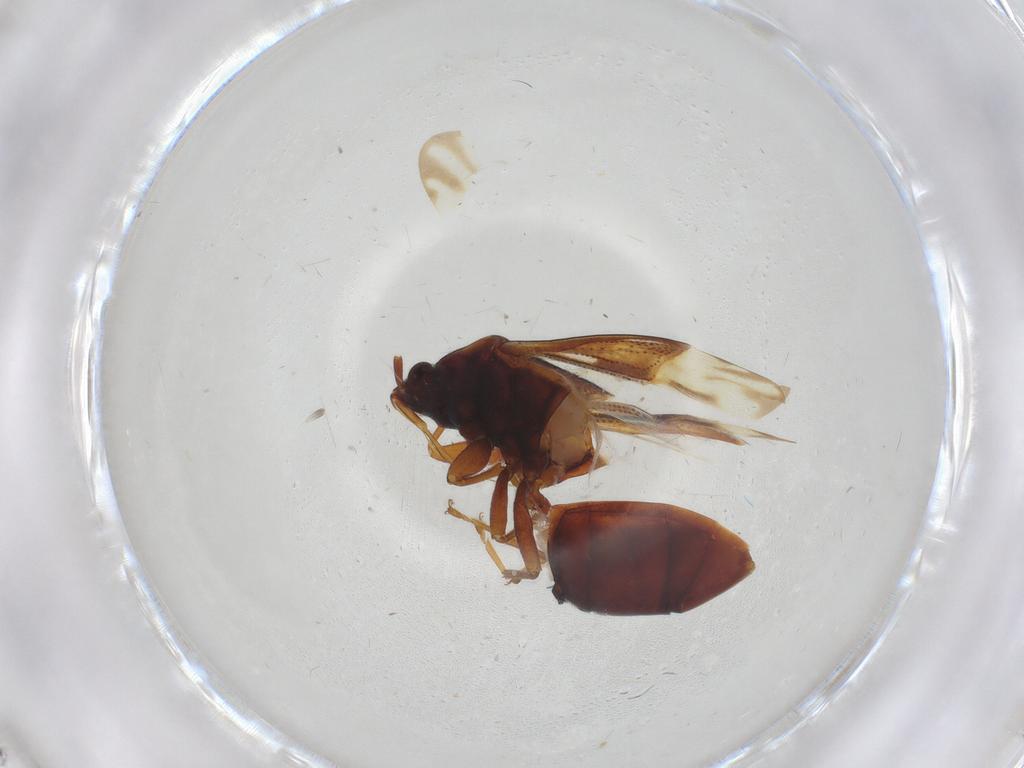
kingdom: Animalia
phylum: Arthropoda
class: Insecta
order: Hemiptera
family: Rhyparochromidae
